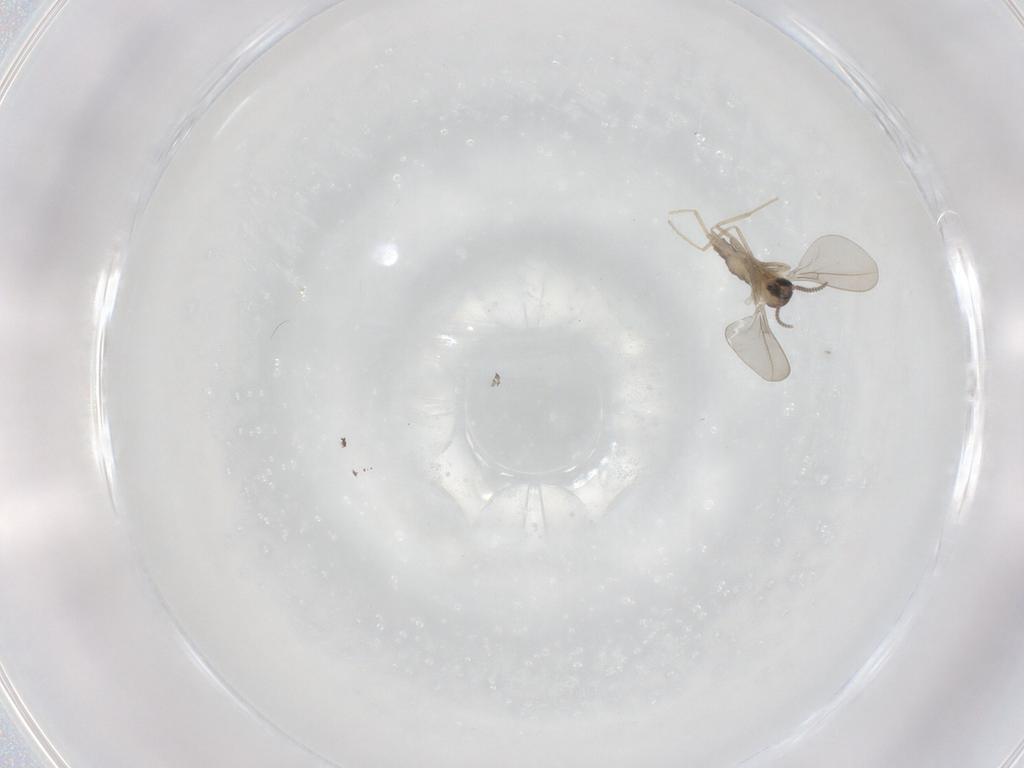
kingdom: Animalia
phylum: Arthropoda
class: Insecta
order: Diptera
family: Cecidomyiidae
